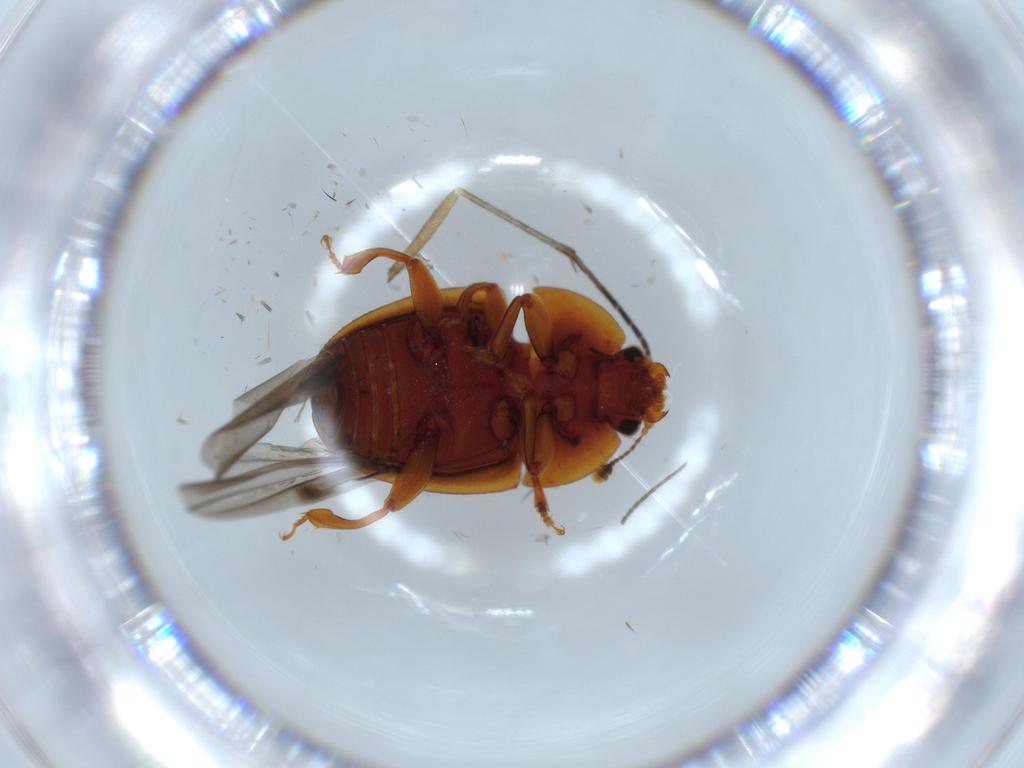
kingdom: Animalia
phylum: Arthropoda
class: Insecta
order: Coleoptera
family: Nitidulidae
